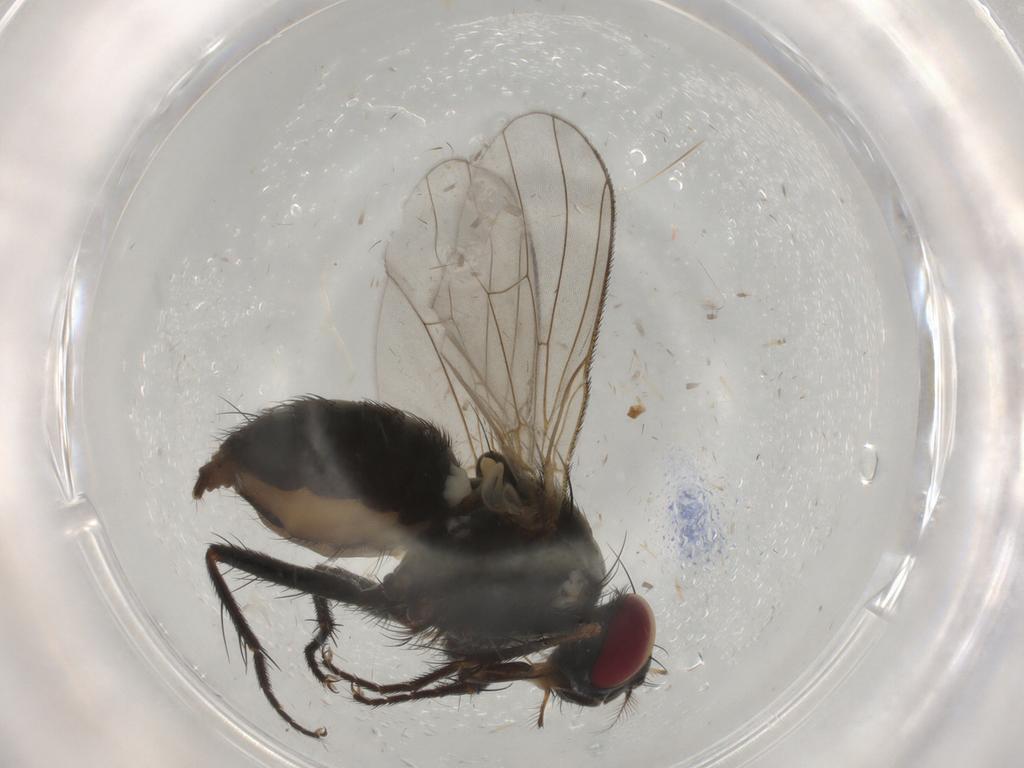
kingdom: Animalia
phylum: Arthropoda
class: Insecta
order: Diptera
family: Muscidae
